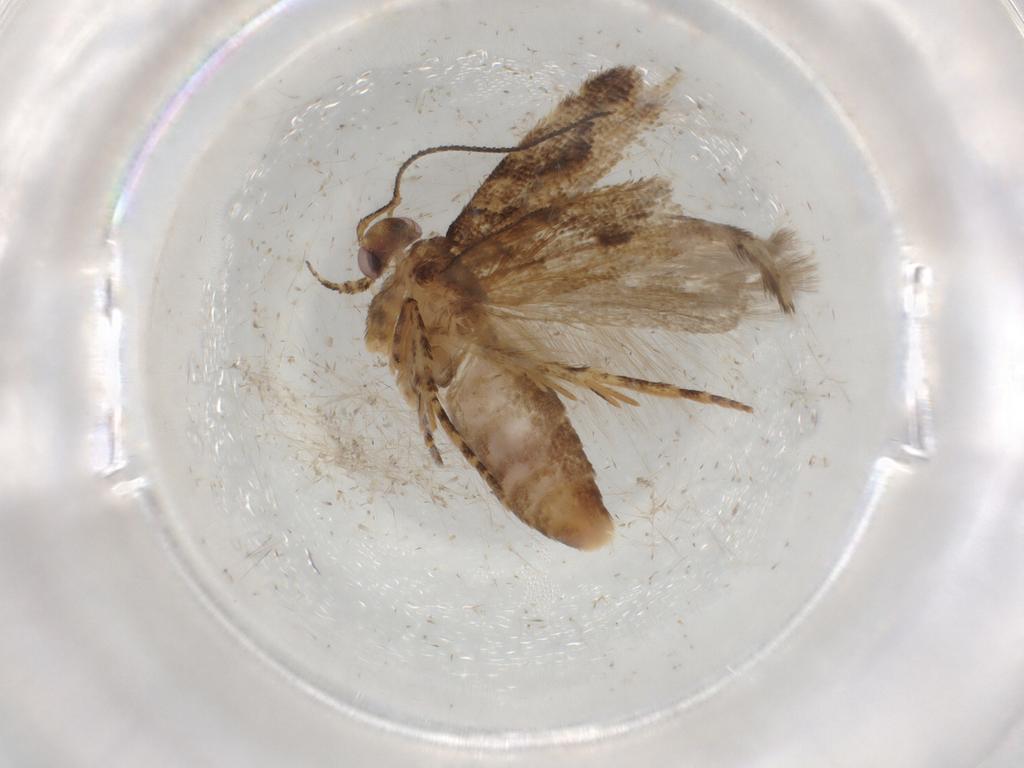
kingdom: Animalia
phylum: Arthropoda
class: Insecta
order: Lepidoptera
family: Gelechiidae
